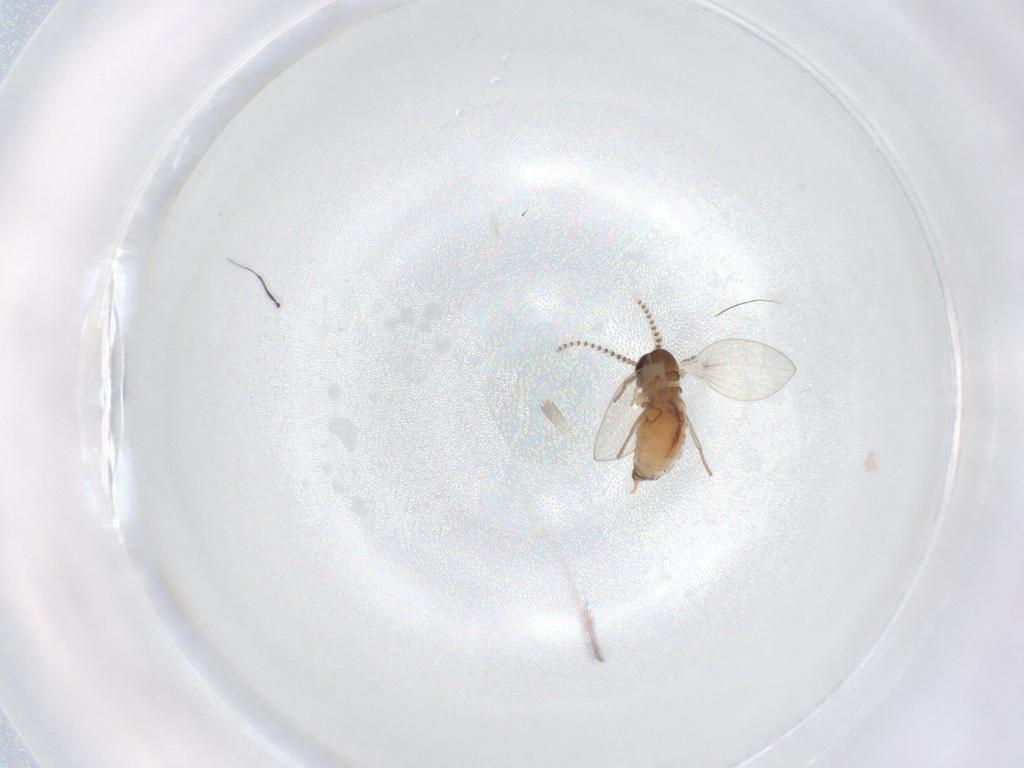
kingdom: Animalia
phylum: Arthropoda
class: Insecta
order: Diptera
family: Psychodidae
